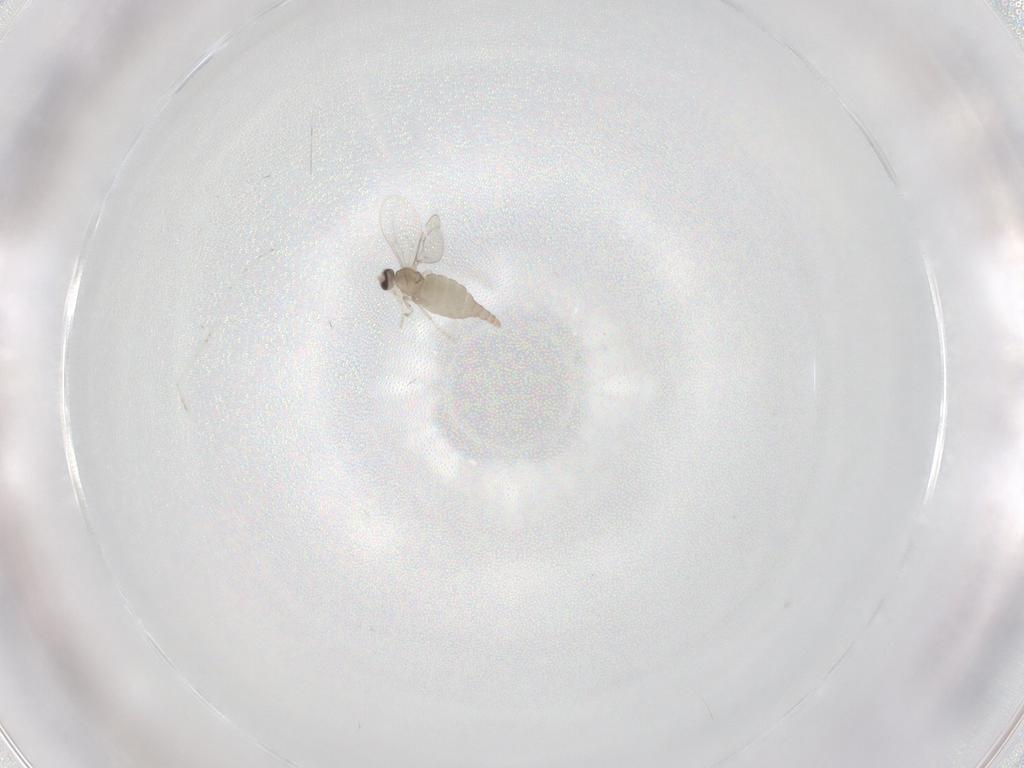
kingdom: Animalia
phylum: Arthropoda
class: Insecta
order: Diptera
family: Cecidomyiidae
